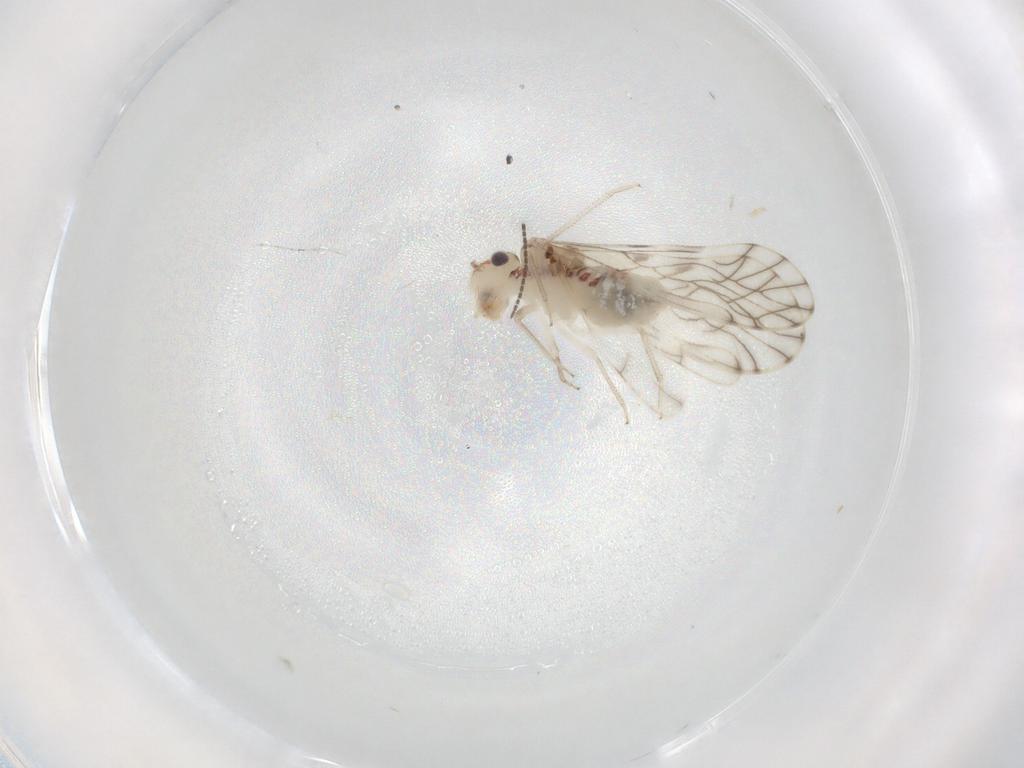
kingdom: Animalia
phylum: Arthropoda
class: Insecta
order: Psocodea
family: Philotarsidae
